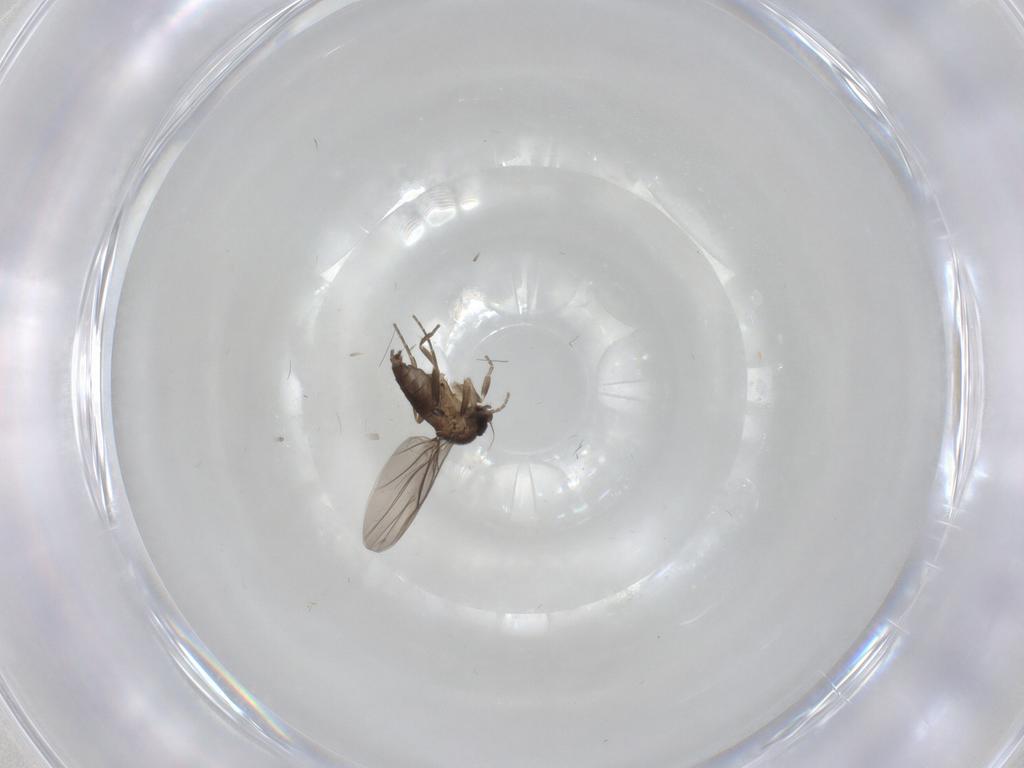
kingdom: Animalia
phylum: Arthropoda
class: Insecta
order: Diptera
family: Phoridae
